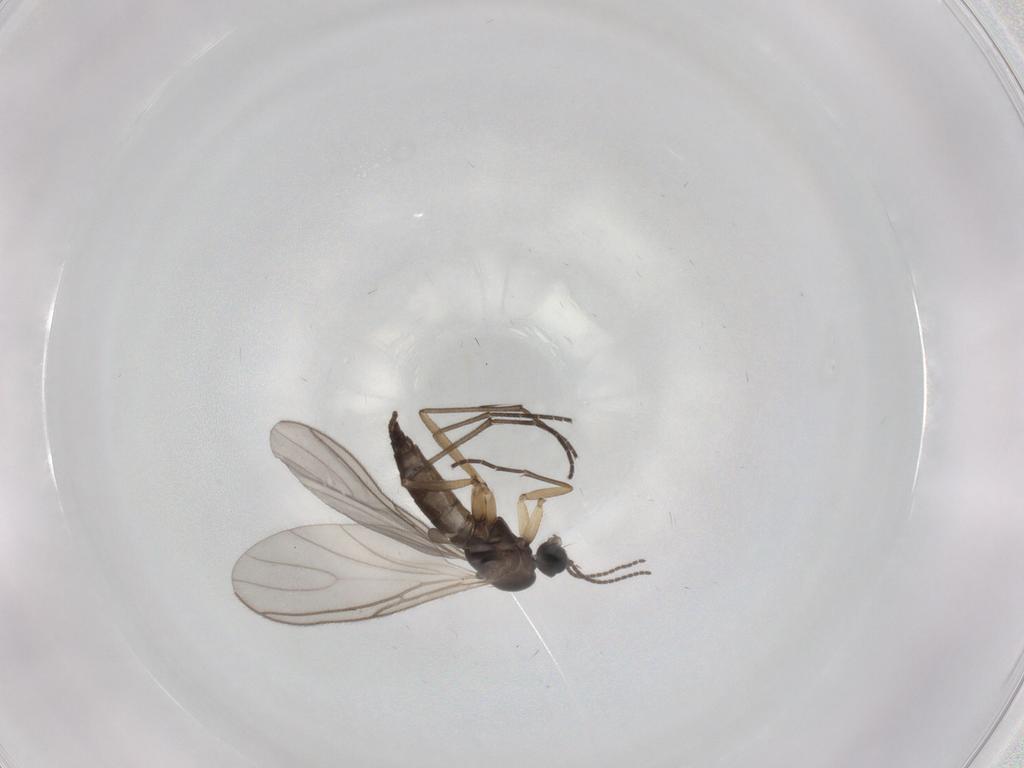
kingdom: Animalia
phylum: Arthropoda
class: Insecta
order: Diptera
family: Sciaridae
